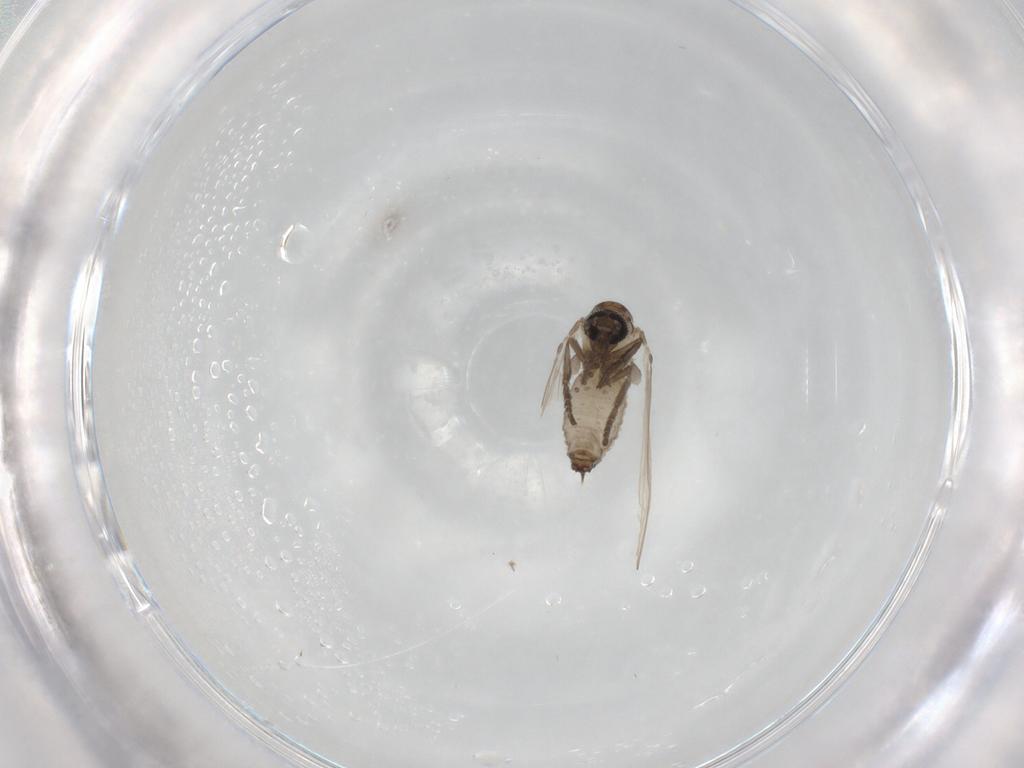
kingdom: Animalia
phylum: Arthropoda
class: Insecta
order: Diptera
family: Psychodidae
